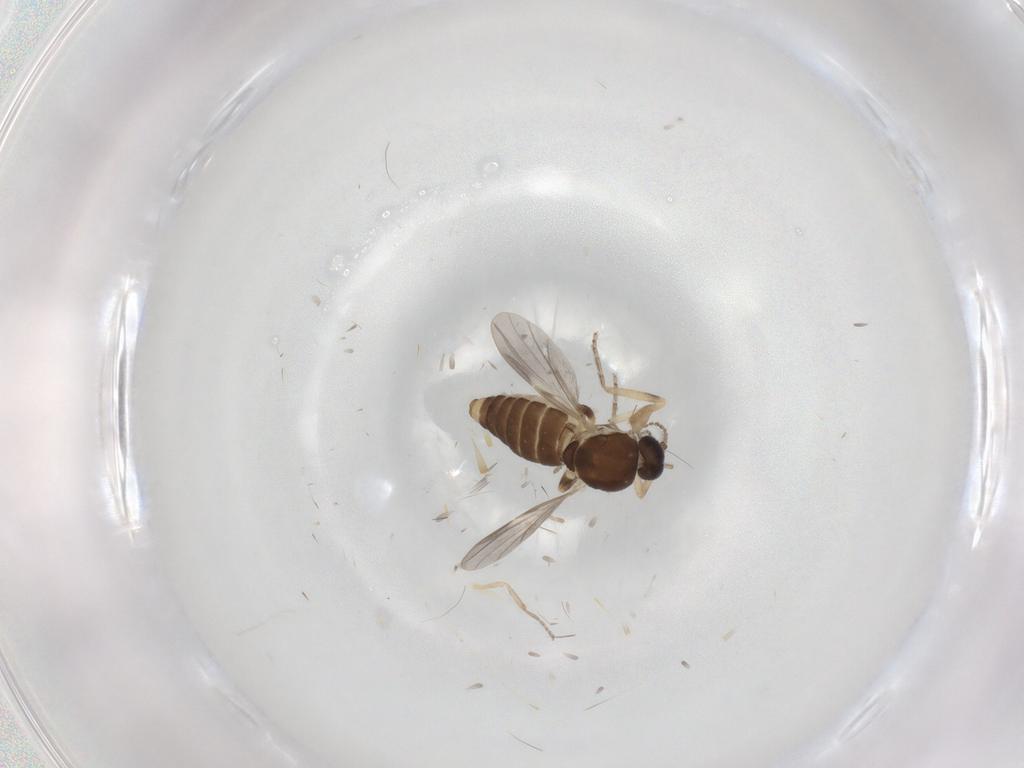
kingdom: Animalia
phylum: Arthropoda
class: Insecta
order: Diptera
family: Ceratopogonidae
